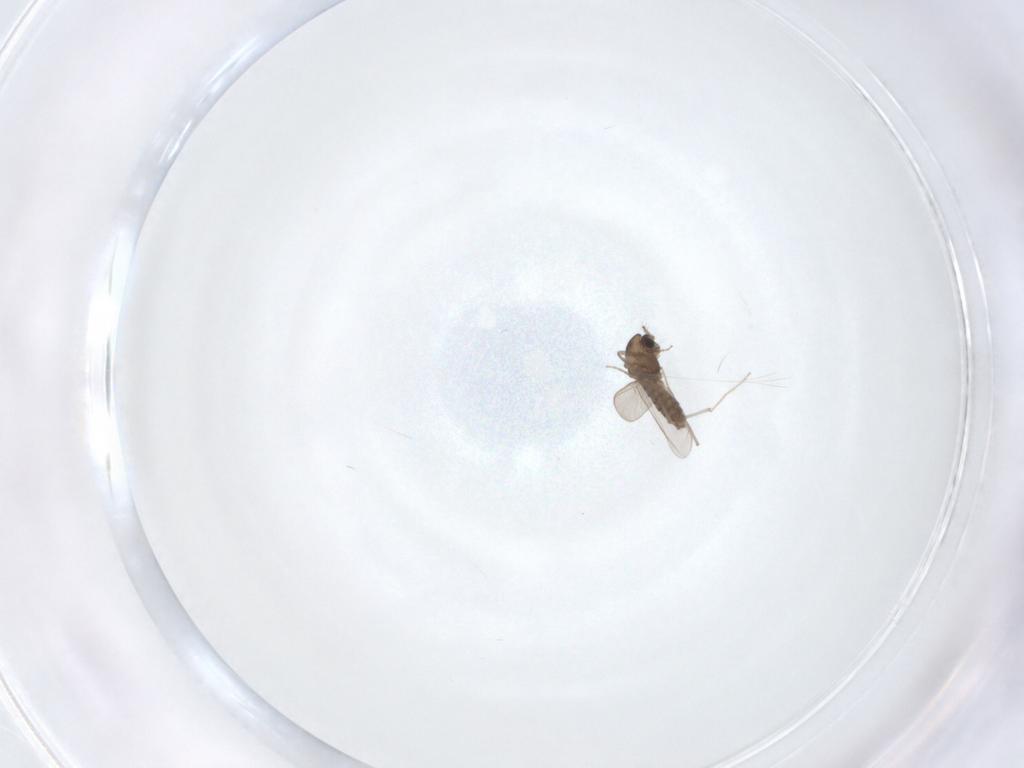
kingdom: Animalia
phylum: Arthropoda
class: Insecta
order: Diptera
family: Chironomidae
